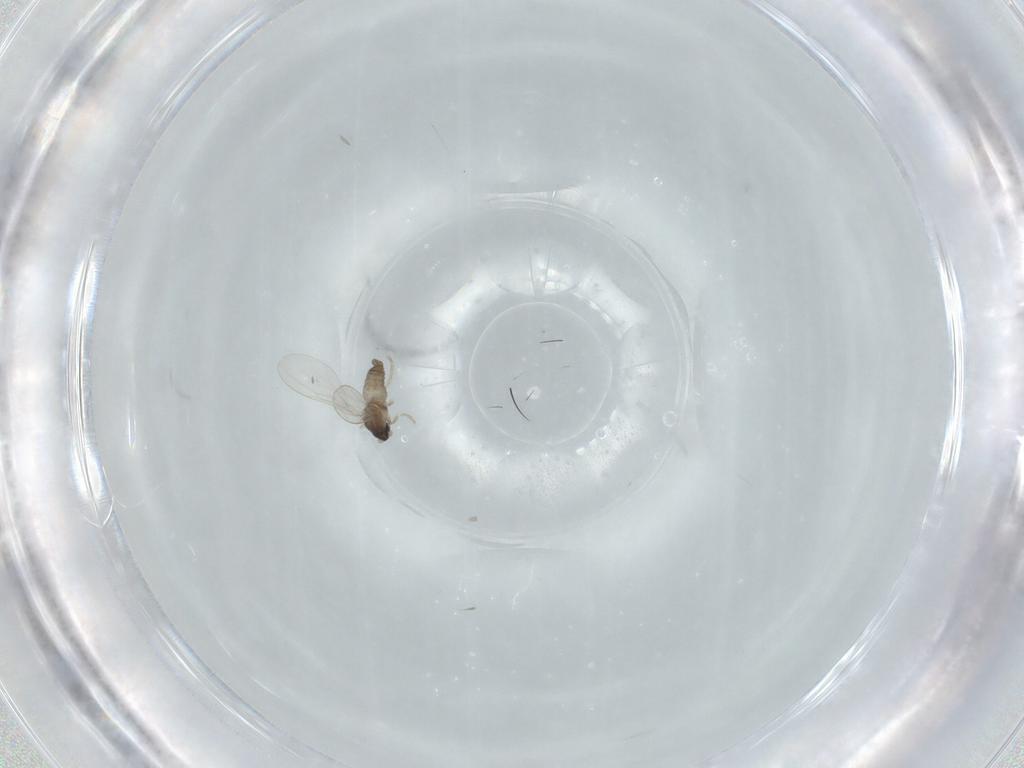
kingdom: Animalia
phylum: Arthropoda
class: Insecta
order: Diptera
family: Cecidomyiidae
